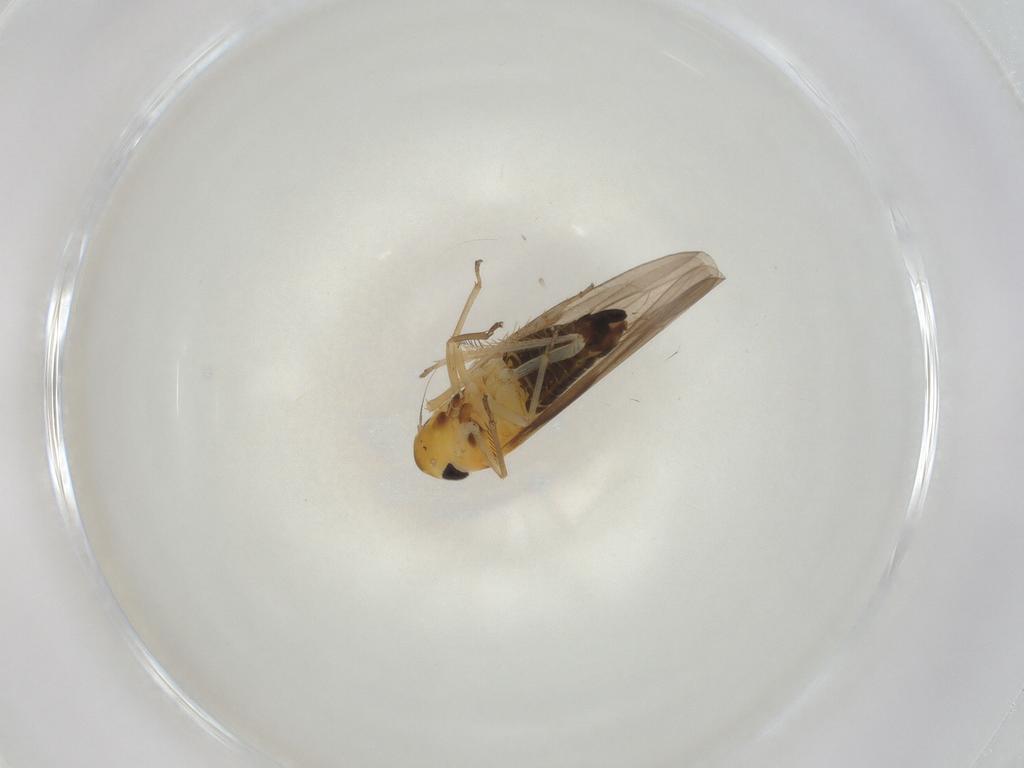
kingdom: Animalia
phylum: Arthropoda
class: Insecta
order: Hemiptera
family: Cicadellidae
